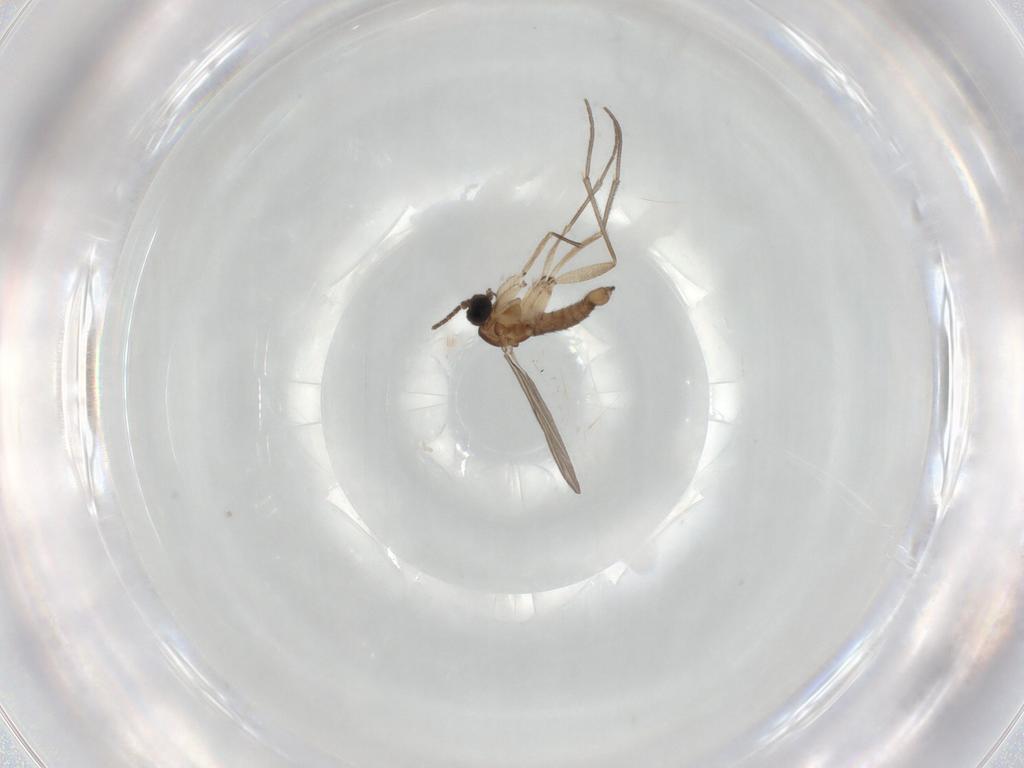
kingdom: Animalia
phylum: Arthropoda
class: Insecta
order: Diptera
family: Sciaridae
